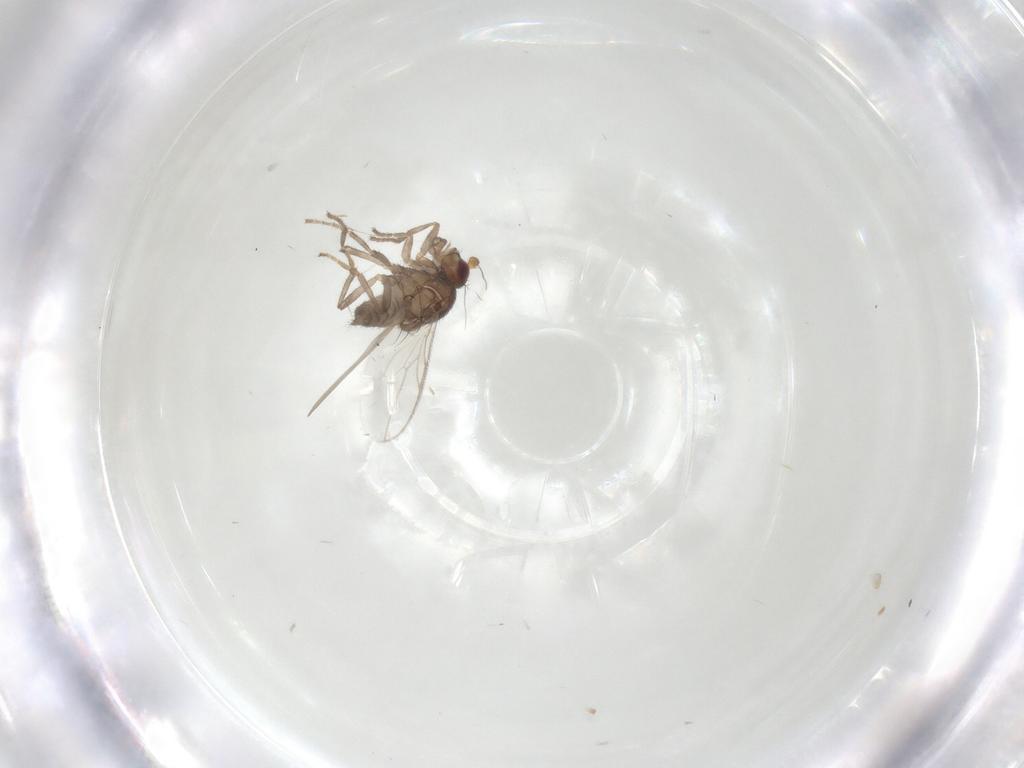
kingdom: Animalia
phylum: Arthropoda
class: Insecta
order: Diptera
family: Sphaeroceridae
